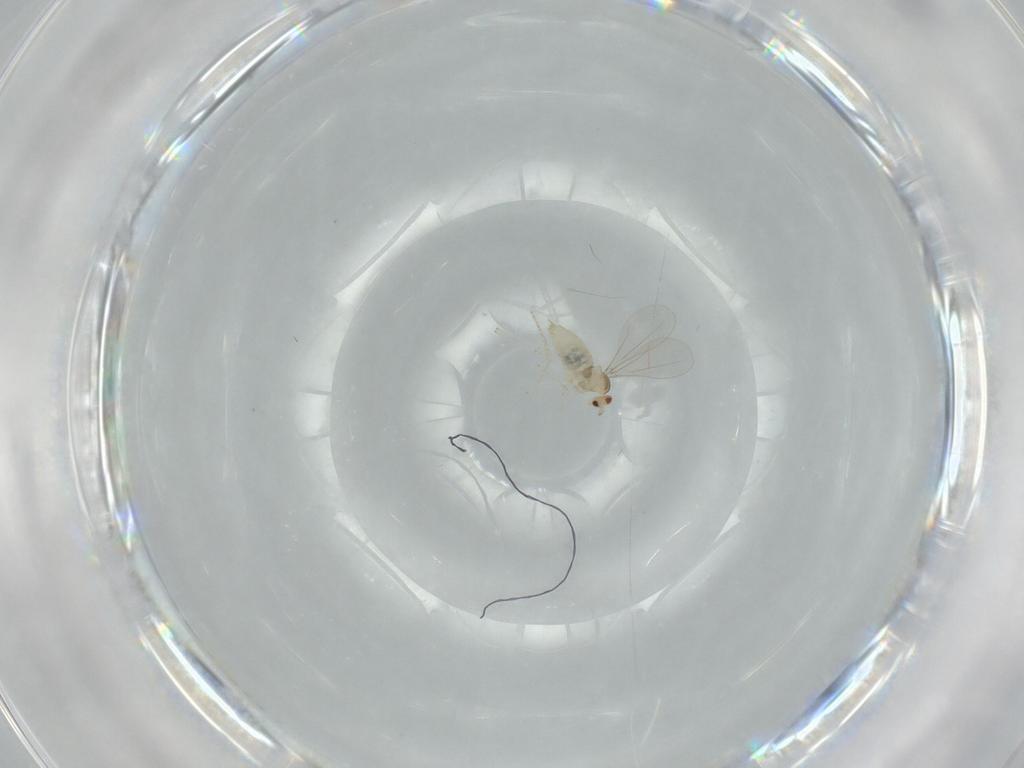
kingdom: Animalia
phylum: Arthropoda
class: Insecta
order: Diptera
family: Cecidomyiidae
